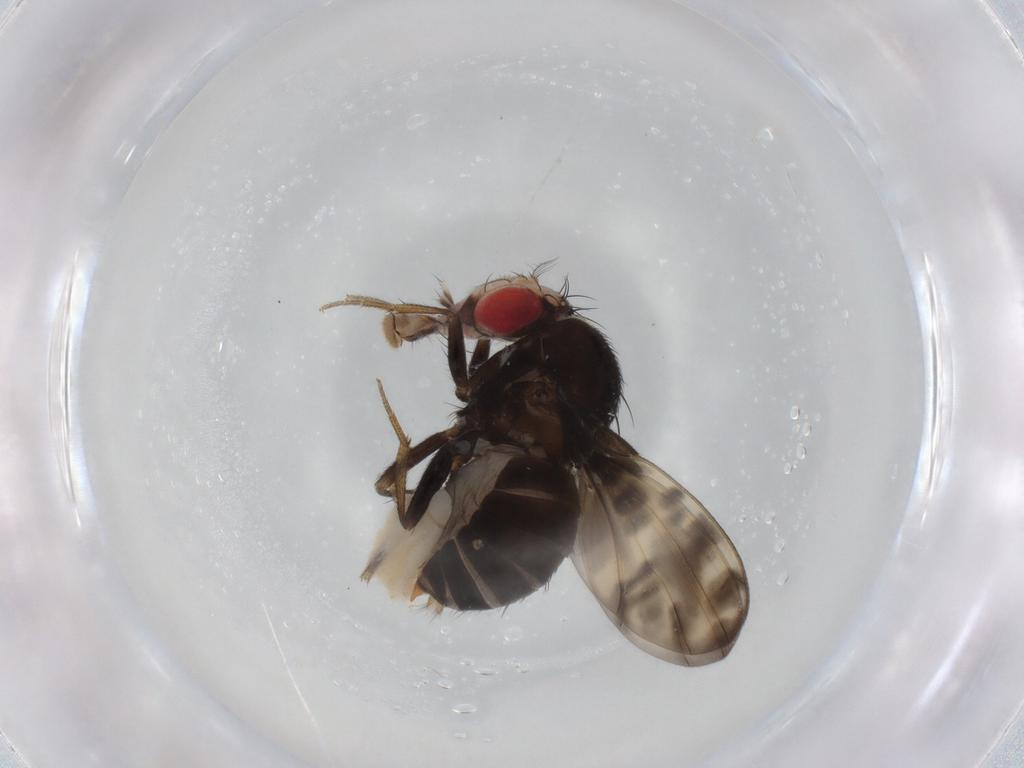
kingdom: Animalia
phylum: Arthropoda
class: Insecta
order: Diptera
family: Drosophilidae
